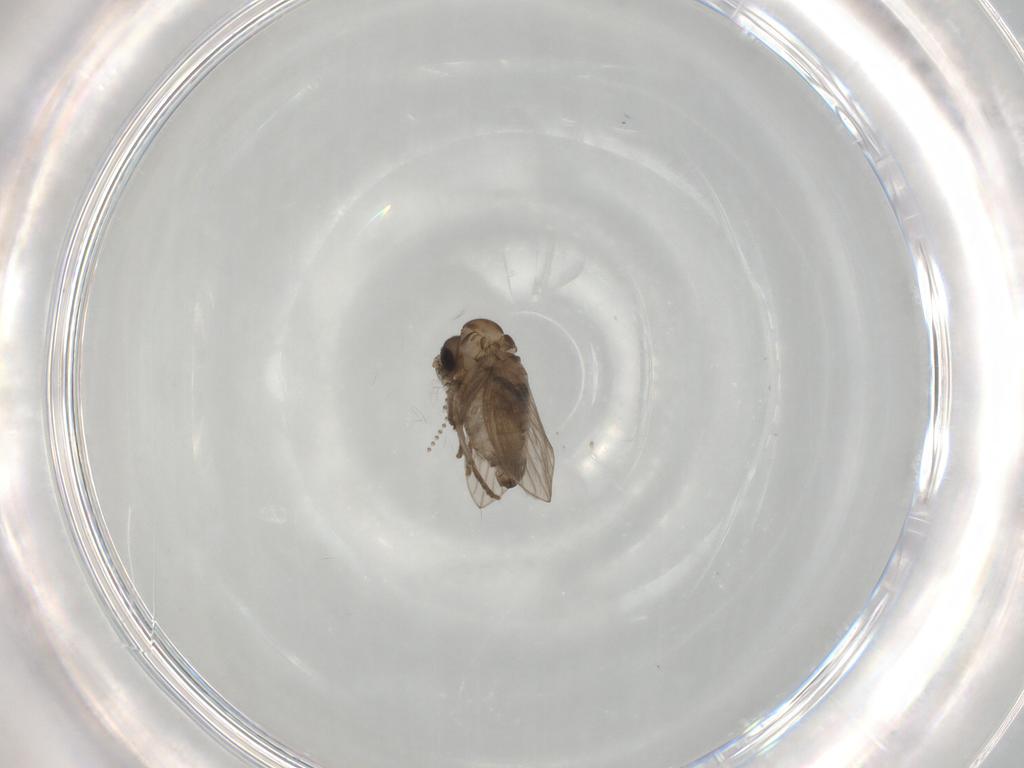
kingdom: Animalia
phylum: Arthropoda
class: Insecta
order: Diptera
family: Psychodidae
